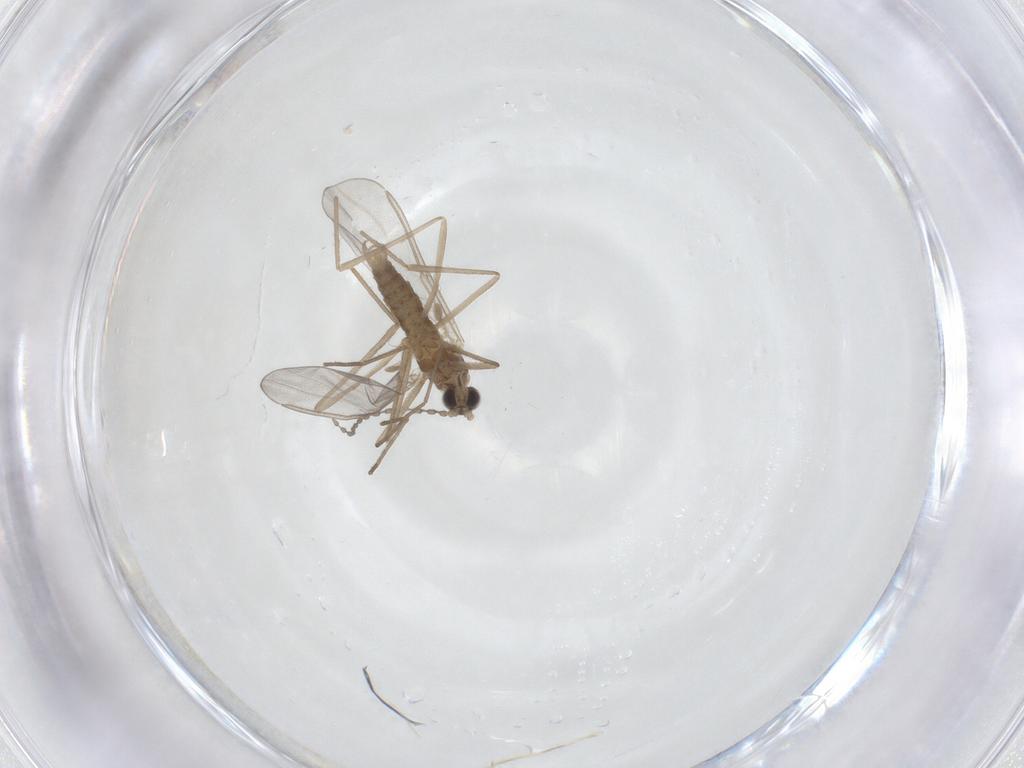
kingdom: Animalia
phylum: Arthropoda
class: Insecta
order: Diptera
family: Cecidomyiidae
